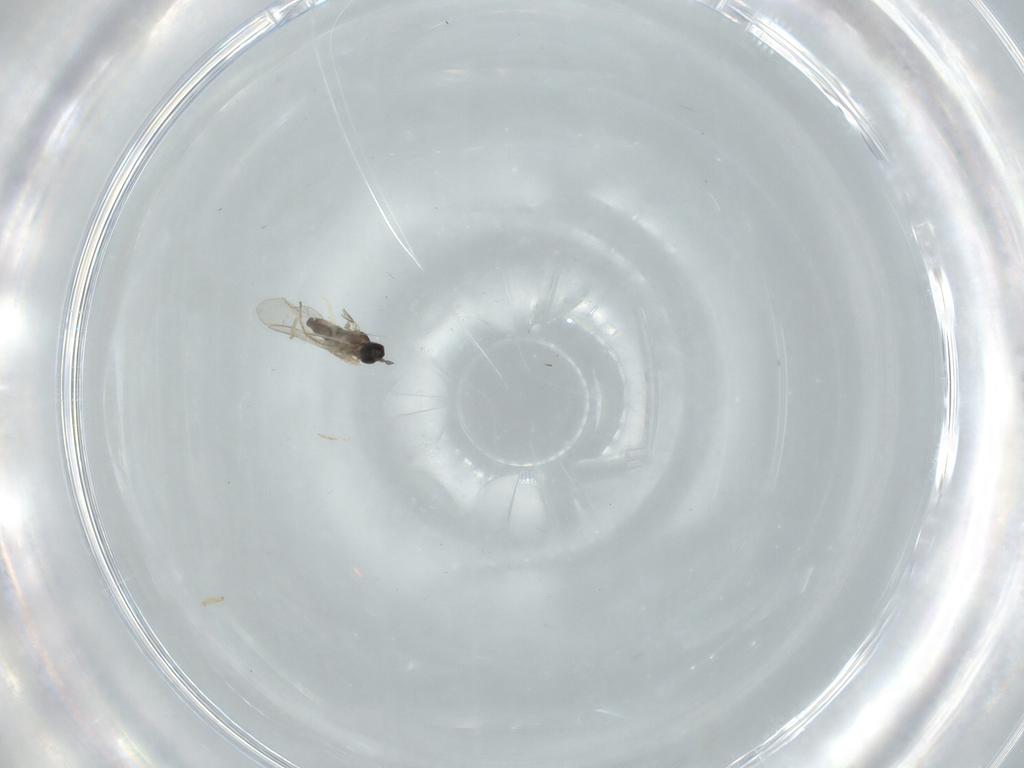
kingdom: Animalia
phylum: Arthropoda
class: Insecta
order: Diptera
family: Cecidomyiidae
